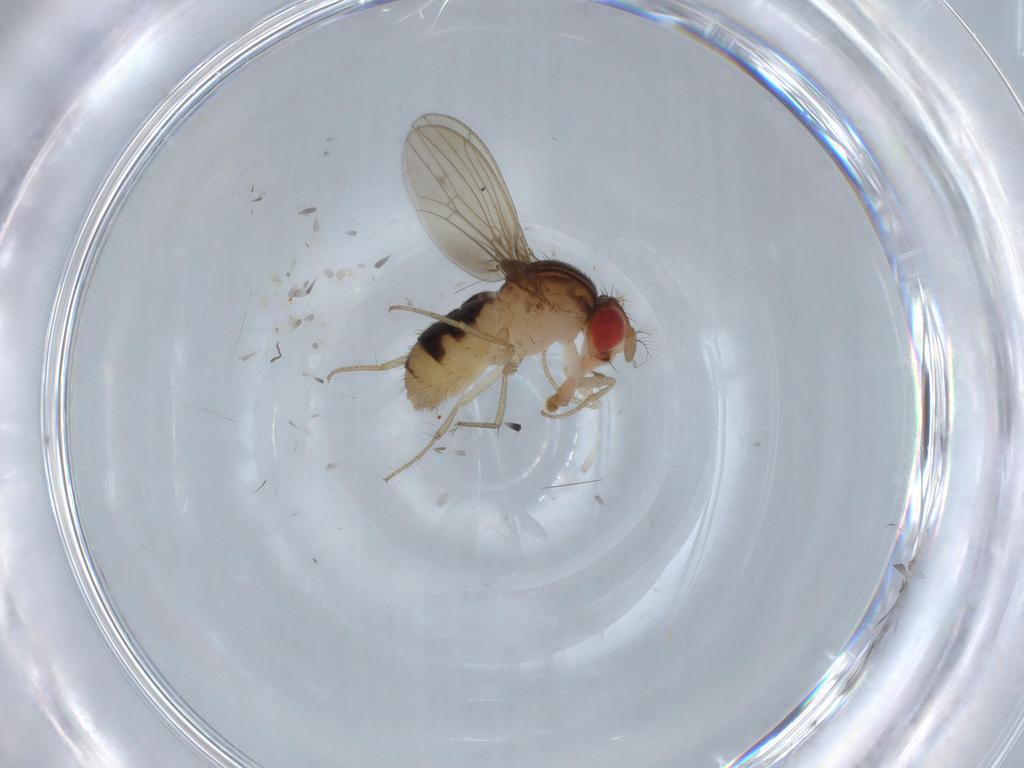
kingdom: Animalia
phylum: Arthropoda
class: Insecta
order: Diptera
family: Drosophilidae
